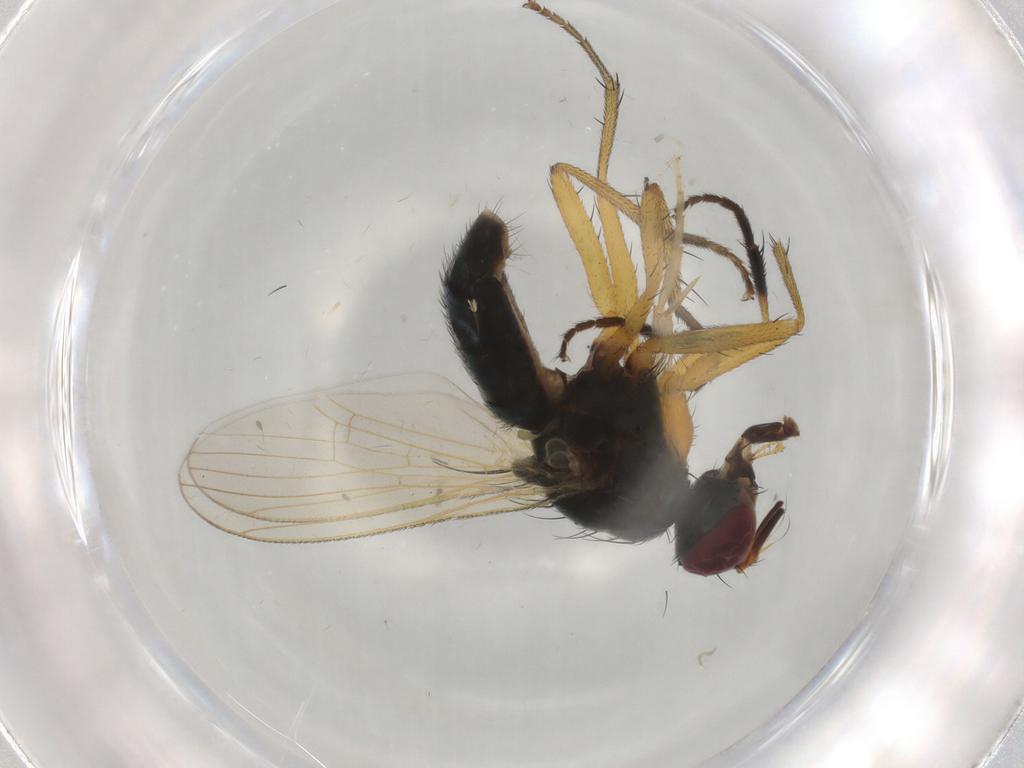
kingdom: Animalia
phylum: Arthropoda
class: Insecta
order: Diptera
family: Muscidae
